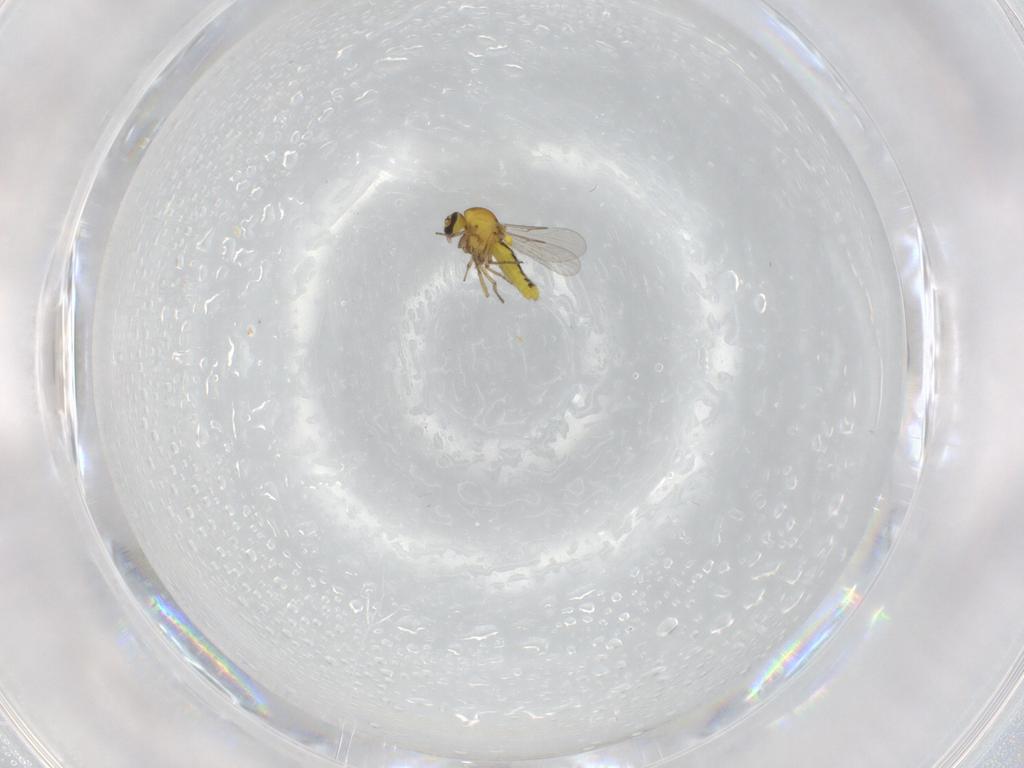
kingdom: Animalia
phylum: Arthropoda
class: Insecta
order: Diptera
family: Ceratopogonidae
